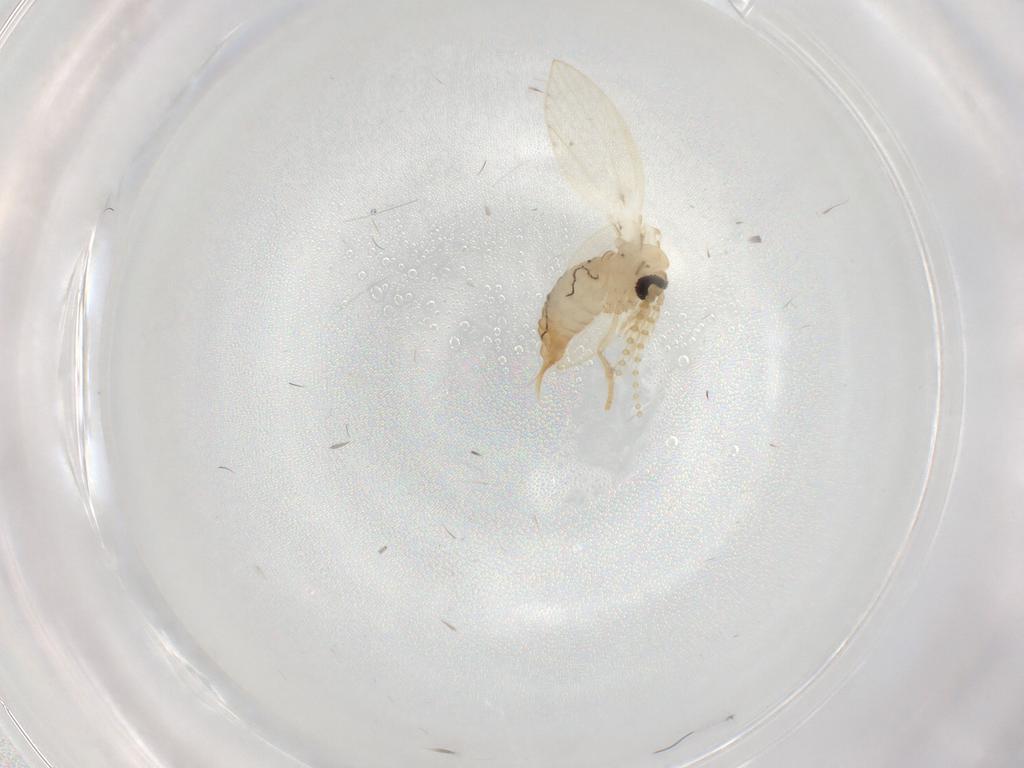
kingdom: Animalia
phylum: Arthropoda
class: Insecta
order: Diptera
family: Psychodidae
